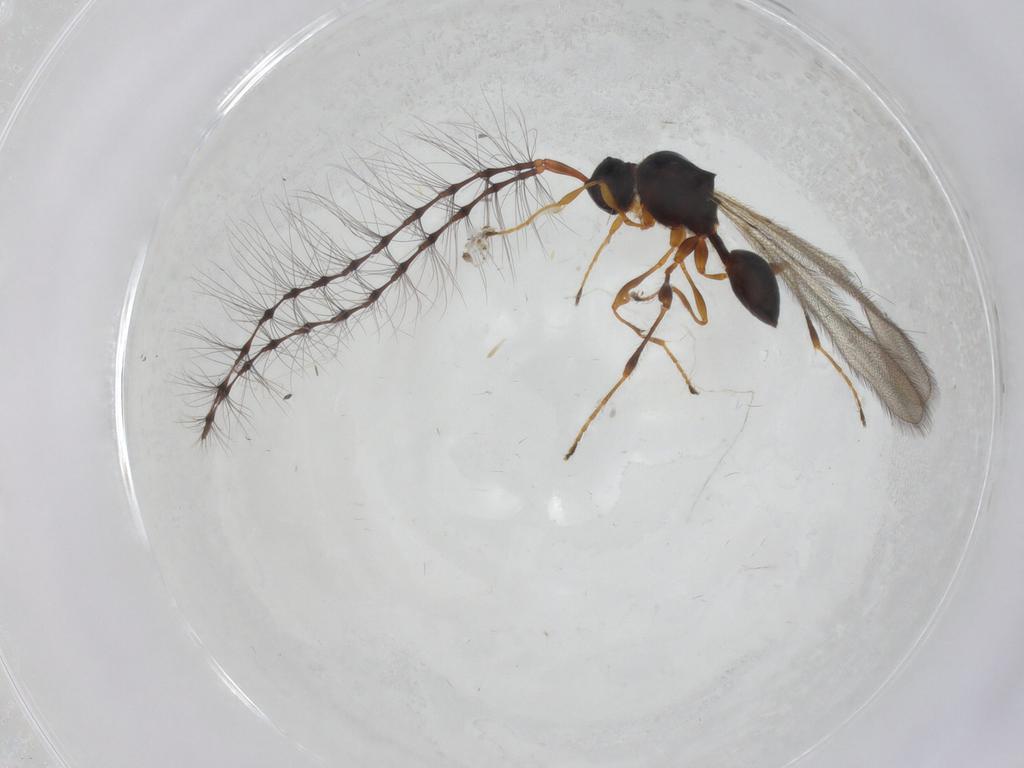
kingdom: Animalia
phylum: Arthropoda
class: Insecta
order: Hymenoptera
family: Diapriidae
